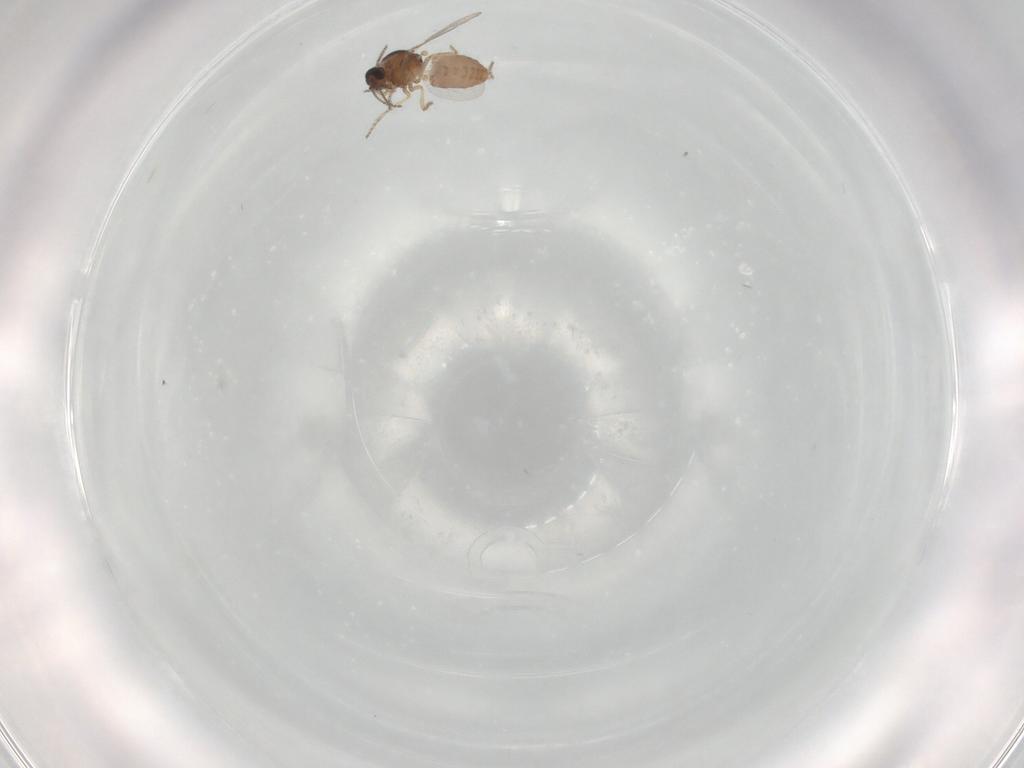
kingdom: Animalia
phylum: Arthropoda
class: Insecta
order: Diptera
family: Ceratopogonidae
